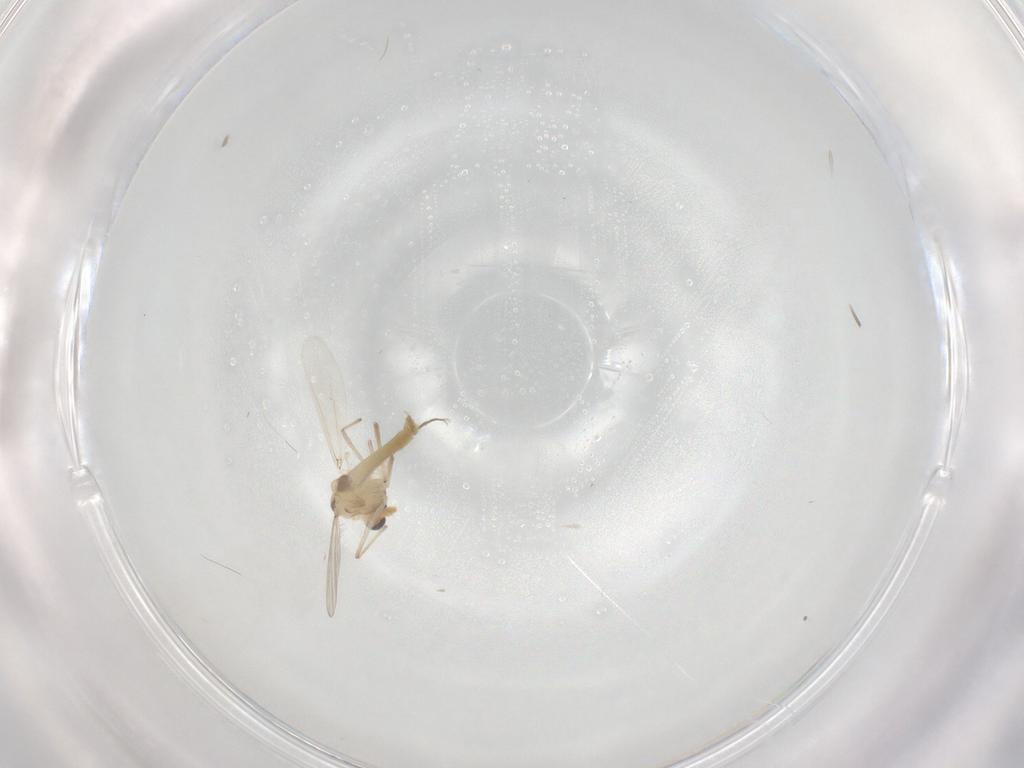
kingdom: Animalia
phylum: Arthropoda
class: Insecta
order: Diptera
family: Chironomidae
